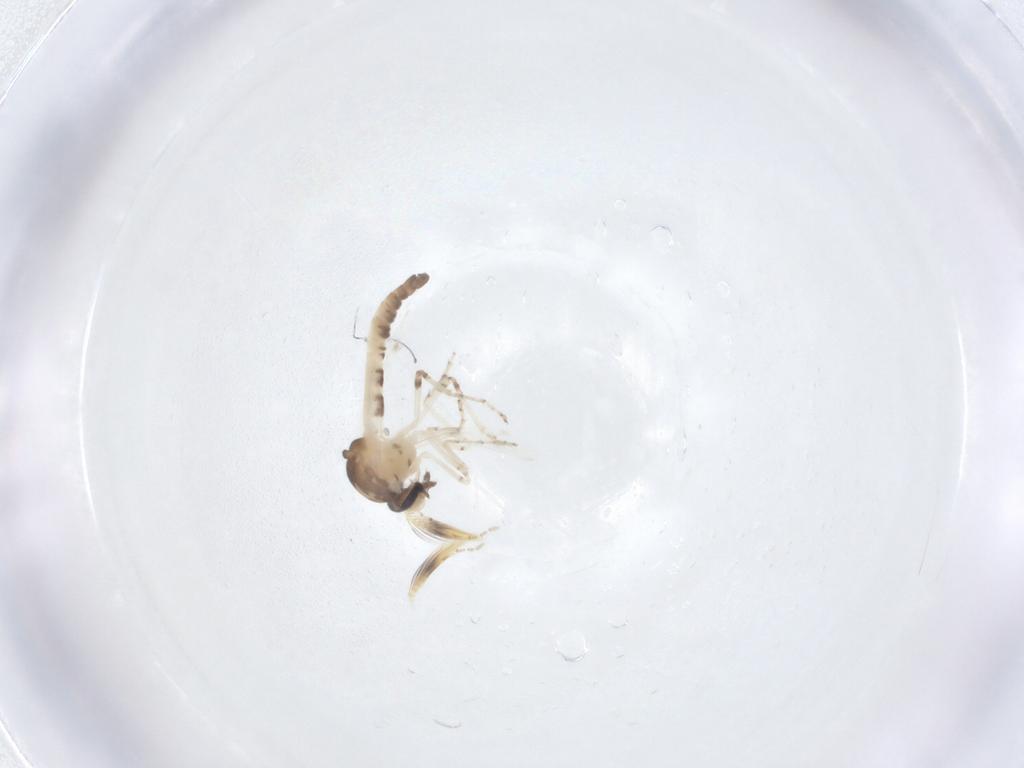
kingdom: Animalia
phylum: Arthropoda
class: Insecta
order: Diptera
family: Ceratopogonidae
